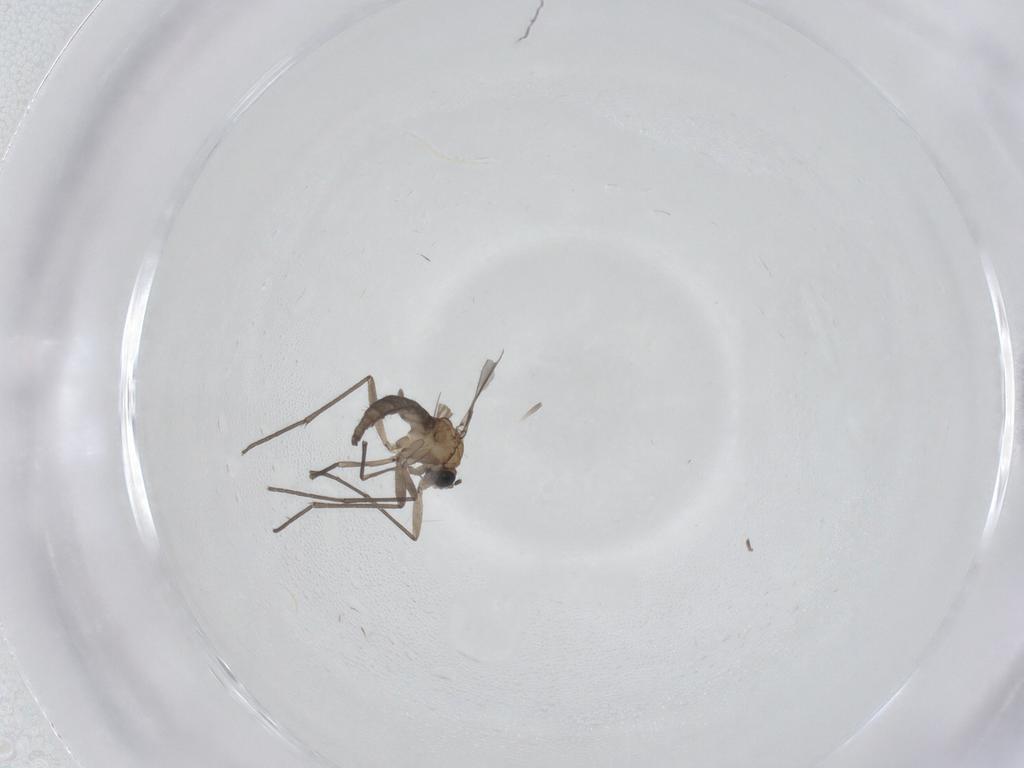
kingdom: Animalia
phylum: Arthropoda
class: Insecta
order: Diptera
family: Sciaridae
